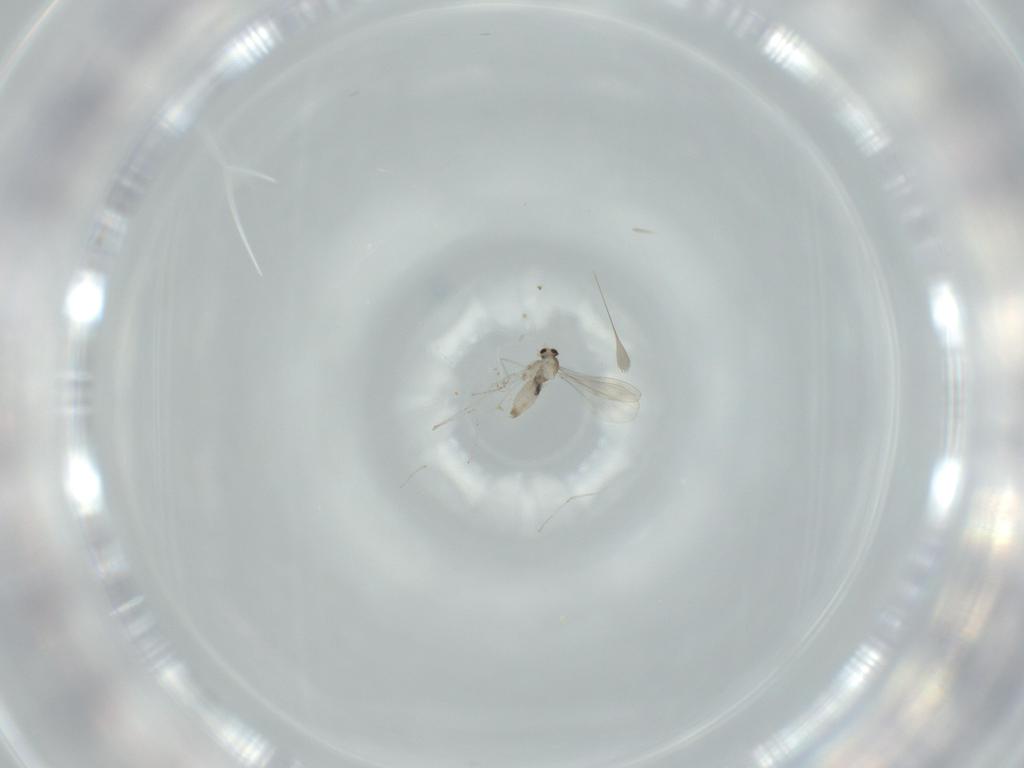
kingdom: Animalia
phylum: Arthropoda
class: Insecta
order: Diptera
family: Cecidomyiidae
